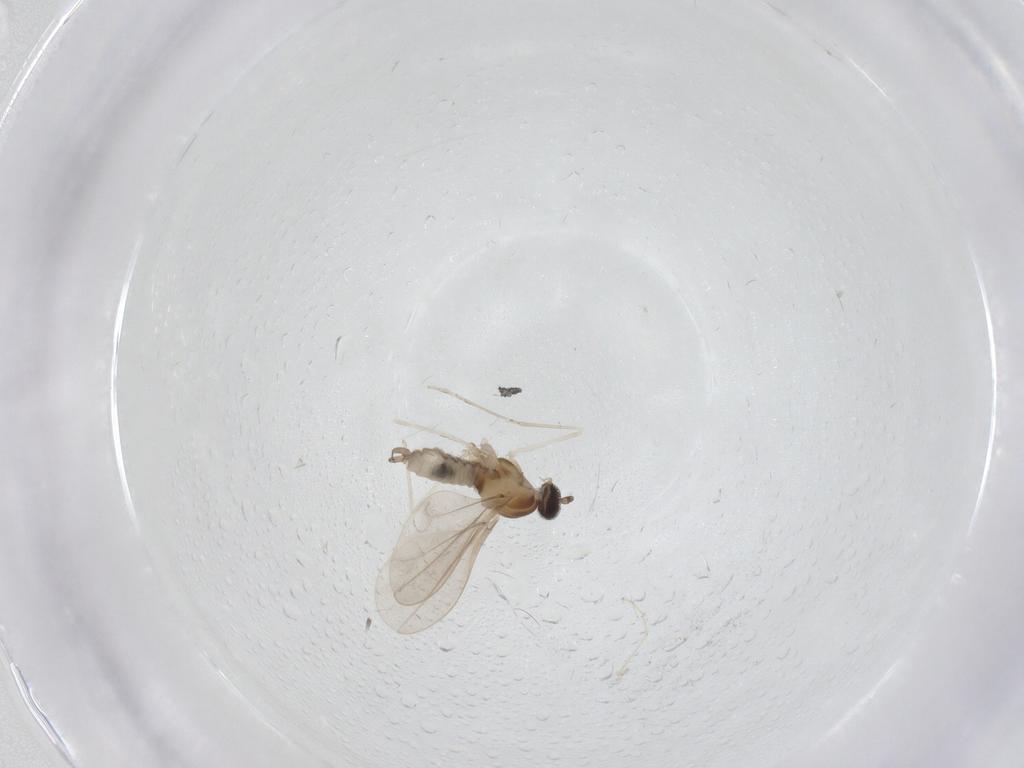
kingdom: Animalia
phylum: Arthropoda
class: Insecta
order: Diptera
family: Cecidomyiidae
